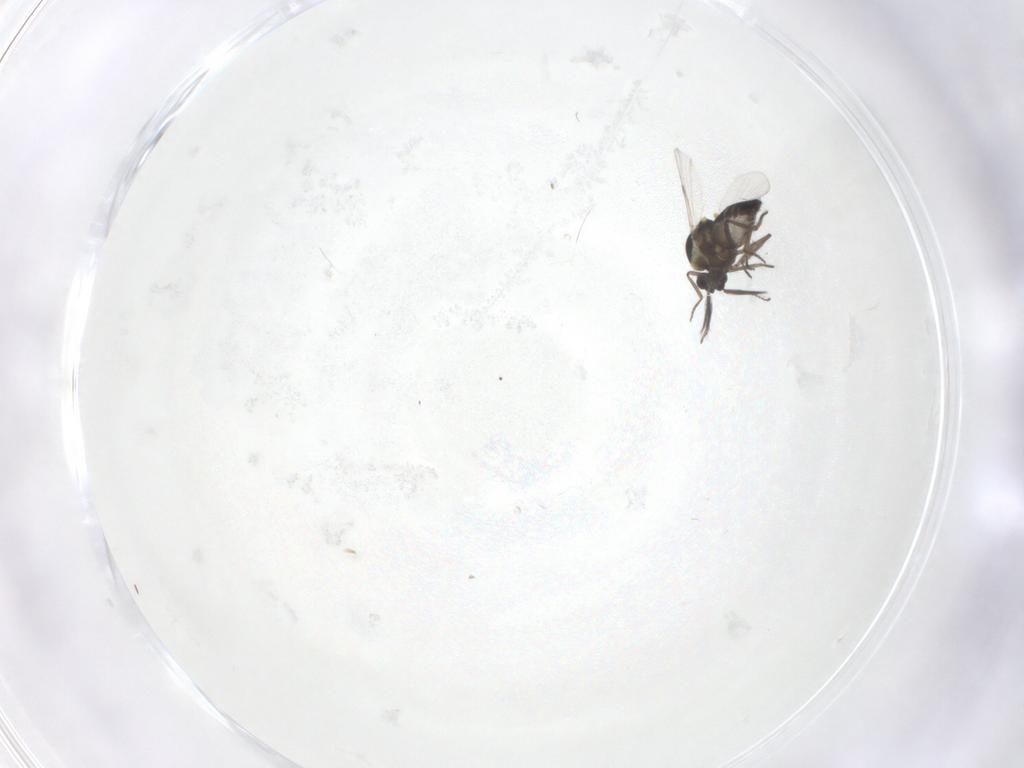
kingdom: Animalia
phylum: Arthropoda
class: Insecta
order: Diptera
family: Ceratopogonidae
